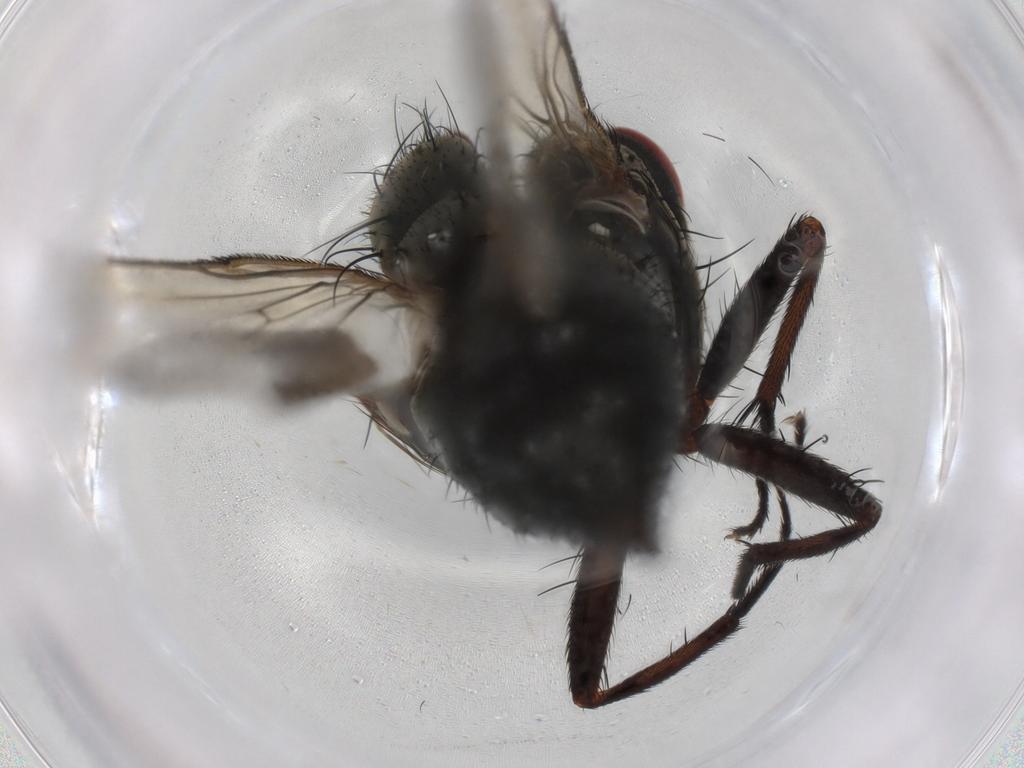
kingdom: Animalia
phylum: Arthropoda
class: Insecta
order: Diptera
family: Muscidae
